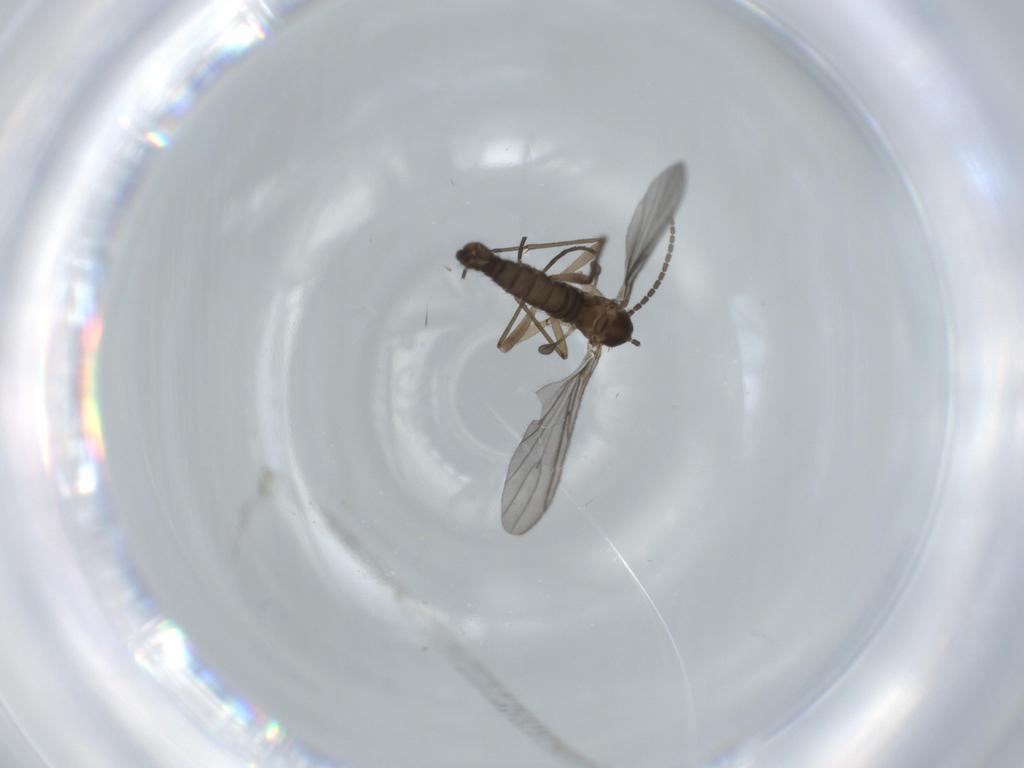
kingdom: Animalia
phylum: Arthropoda
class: Insecta
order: Diptera
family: Sciaridae
